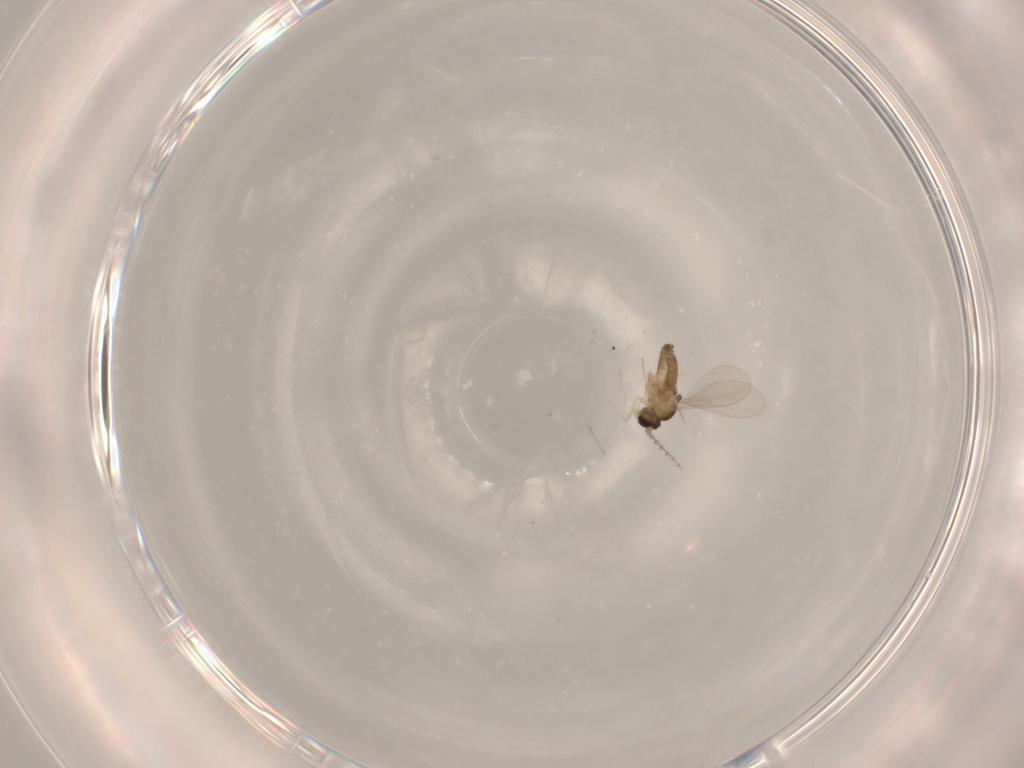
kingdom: Animalia
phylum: Arthropoda
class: Insecta
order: Diptera
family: Cecidomyiidae
